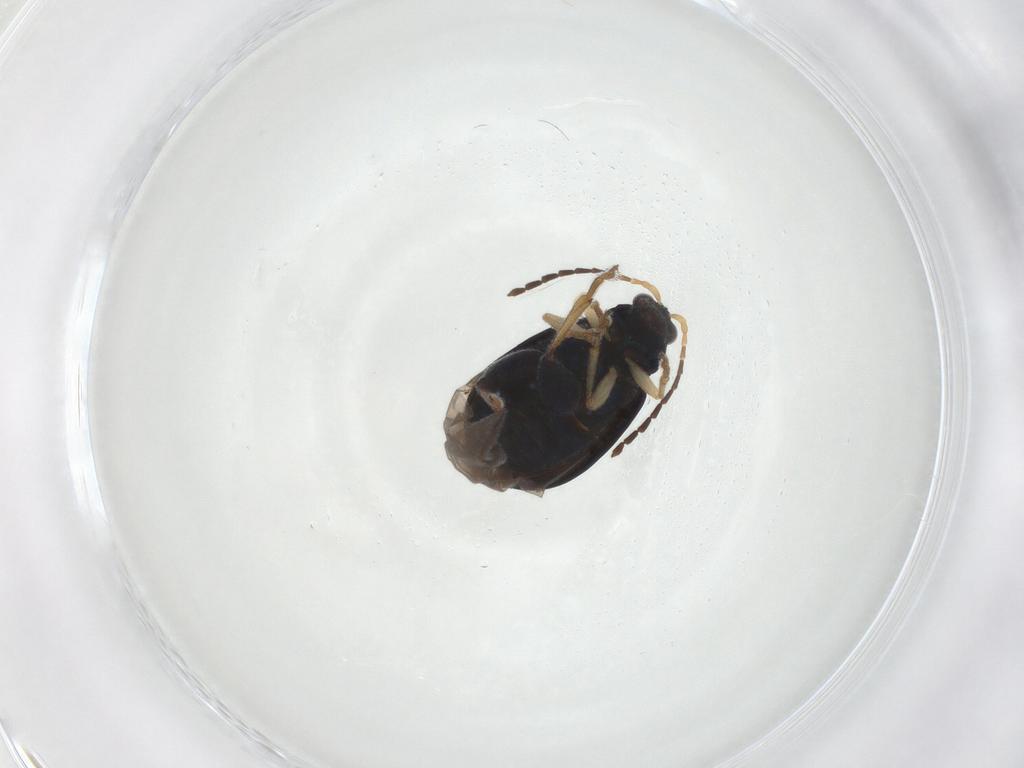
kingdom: Animalia
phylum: Arthropoda
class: Insecta
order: Coleoptera
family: Chrysomelidae
